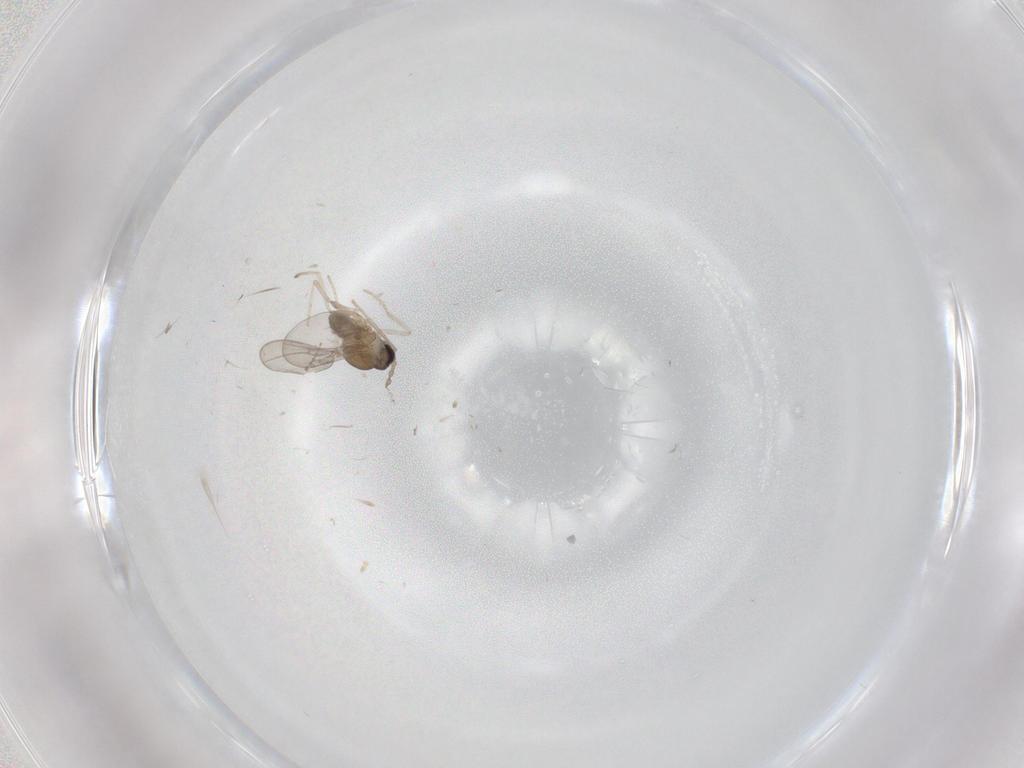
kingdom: Animalia
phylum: Arthropoda
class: Insecta
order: Diptera
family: Cecidomyiidae
